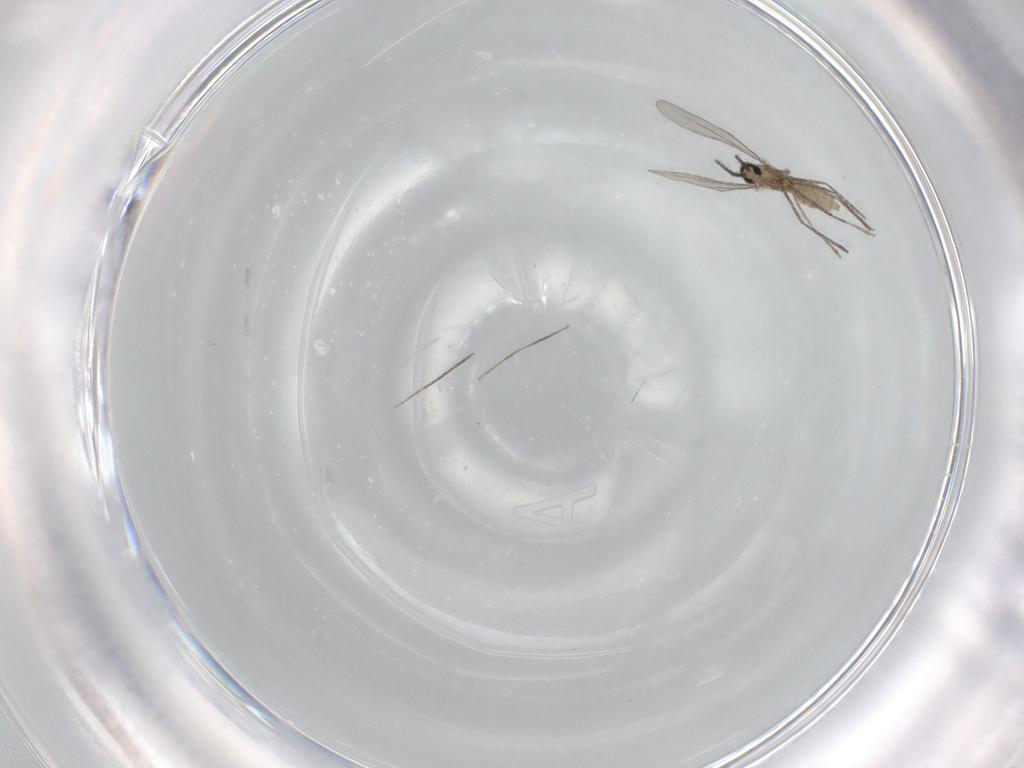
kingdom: Animalia
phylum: Arthropoda
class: Insecta
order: Diptera
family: Cecidomyiidae
